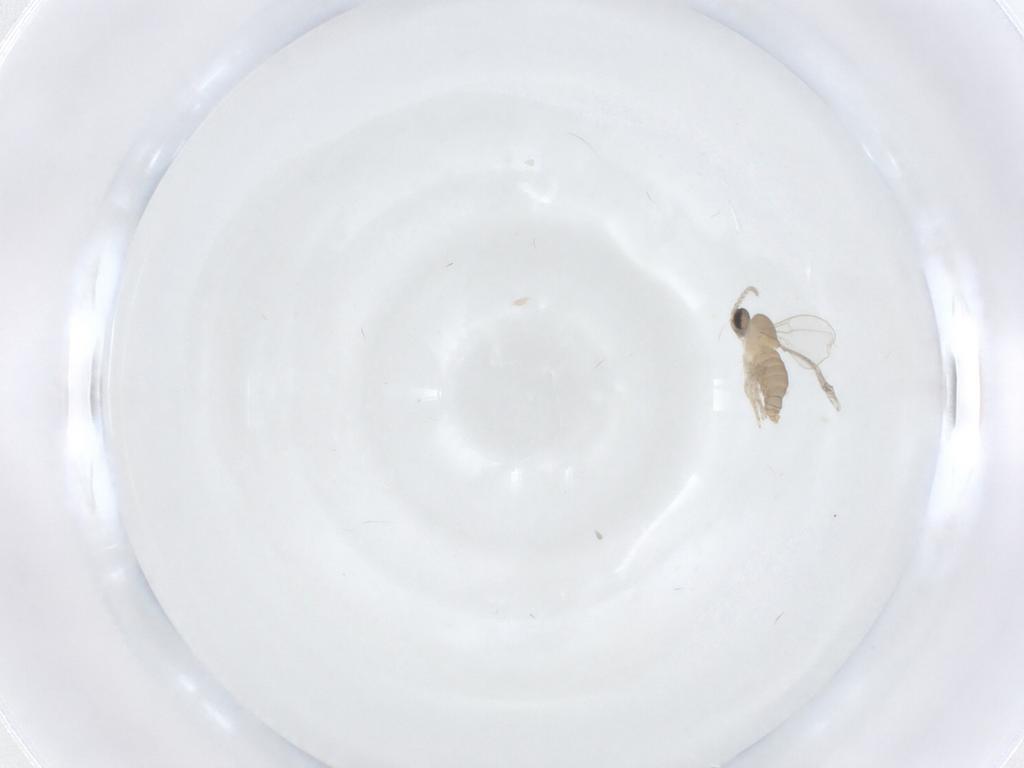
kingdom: Animalia
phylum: Arthropoda
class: Insecta
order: Diptera
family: Cecidomyiidae
